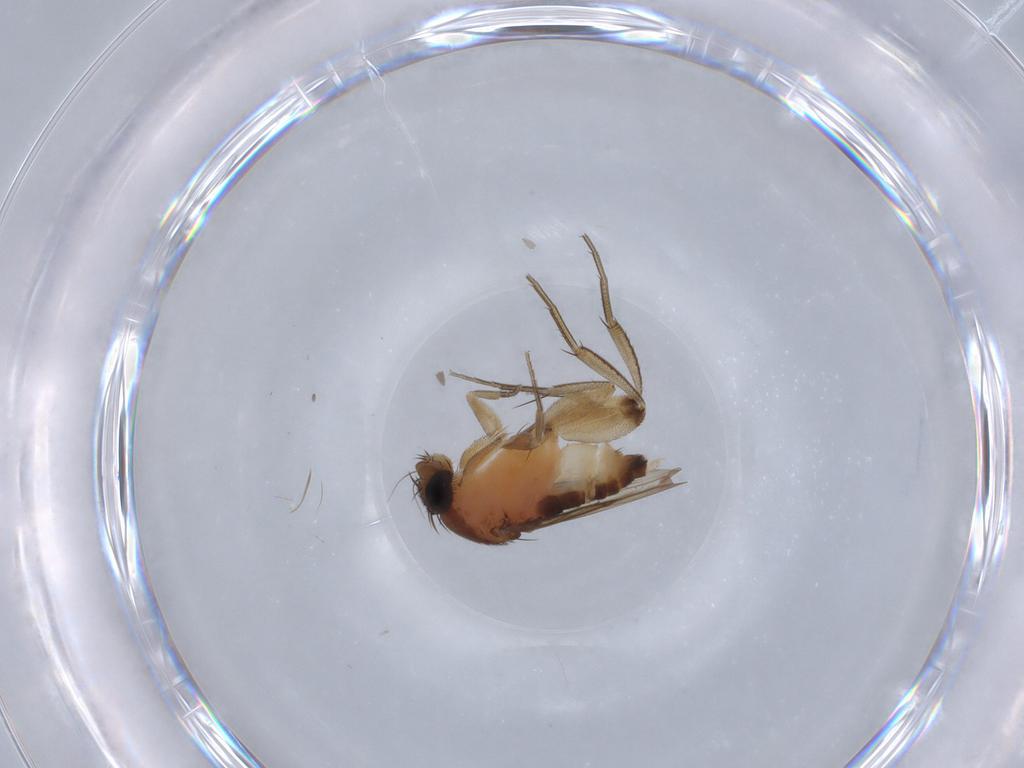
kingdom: Animalia
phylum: Arthropoda
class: Insecta
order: Diptera
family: Phoridae
